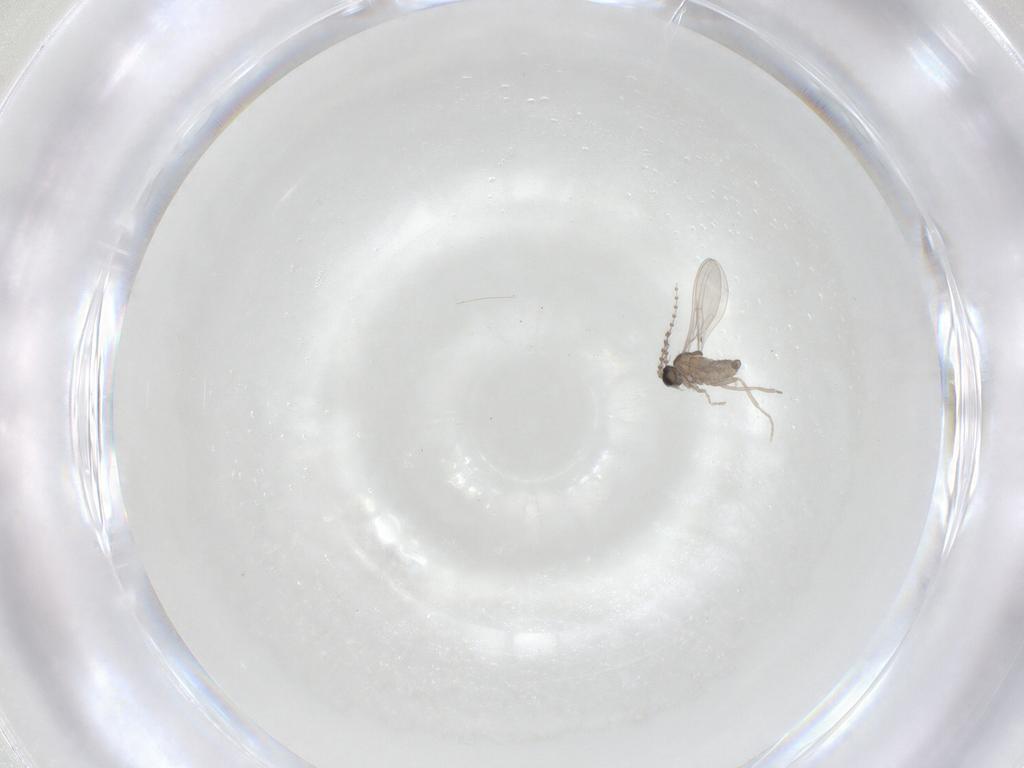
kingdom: Animalia
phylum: Arthropoda
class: Insecta
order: Diptera
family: Cecidomyiidae
